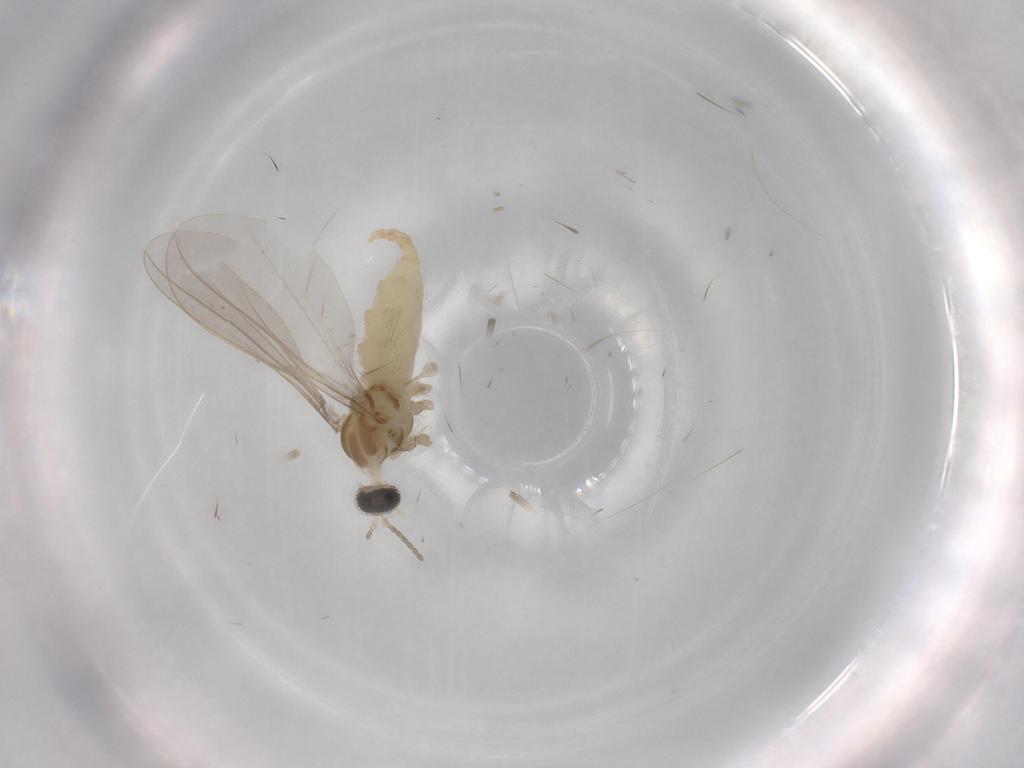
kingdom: Animalia
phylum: Arthropoda
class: Insecta
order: Diptera
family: Cecidomyiidae
